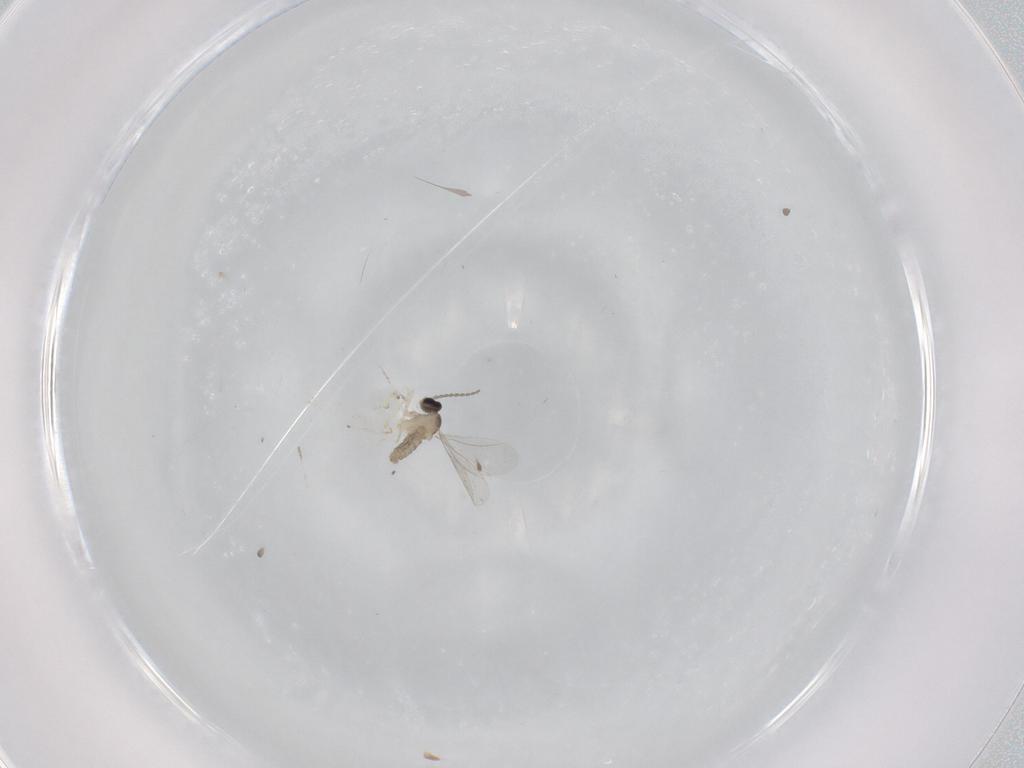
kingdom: Animalia
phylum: Arthropoda
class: Insecta
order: Diptera
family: Cecidomyiidae
